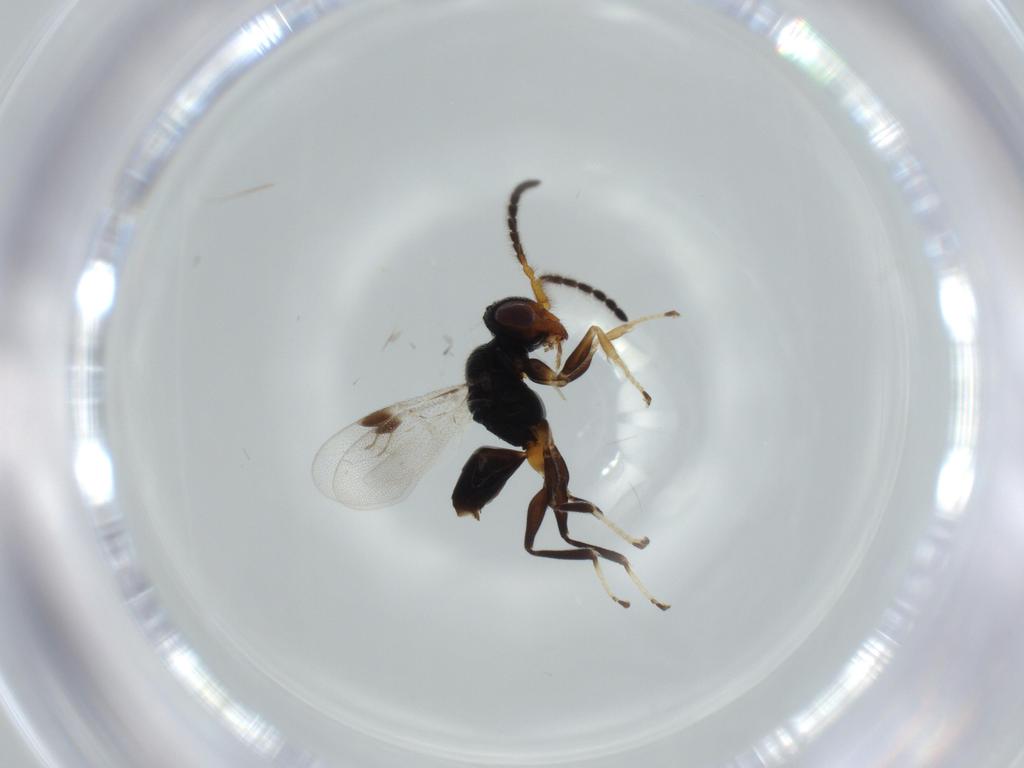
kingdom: Animalia
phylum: Arthropoda
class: Insecta
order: Hymenoptera
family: Dryinidae
